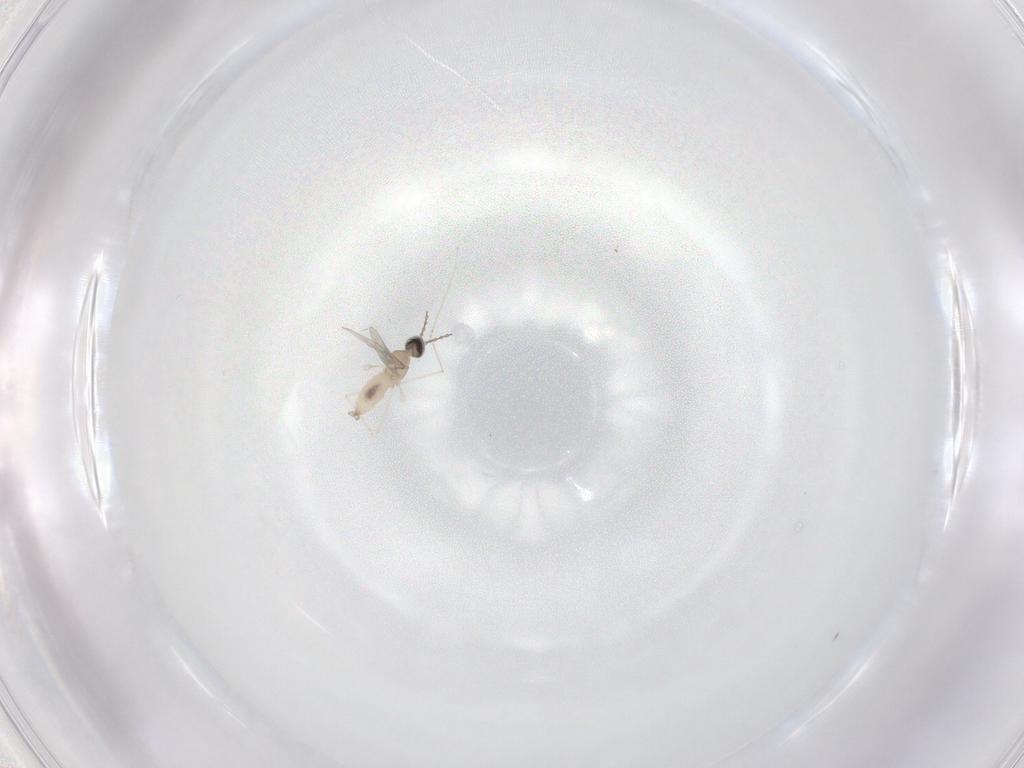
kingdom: Animalia
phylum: Arthropoda
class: Insecta
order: Diptera
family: Cecidomyiidae
